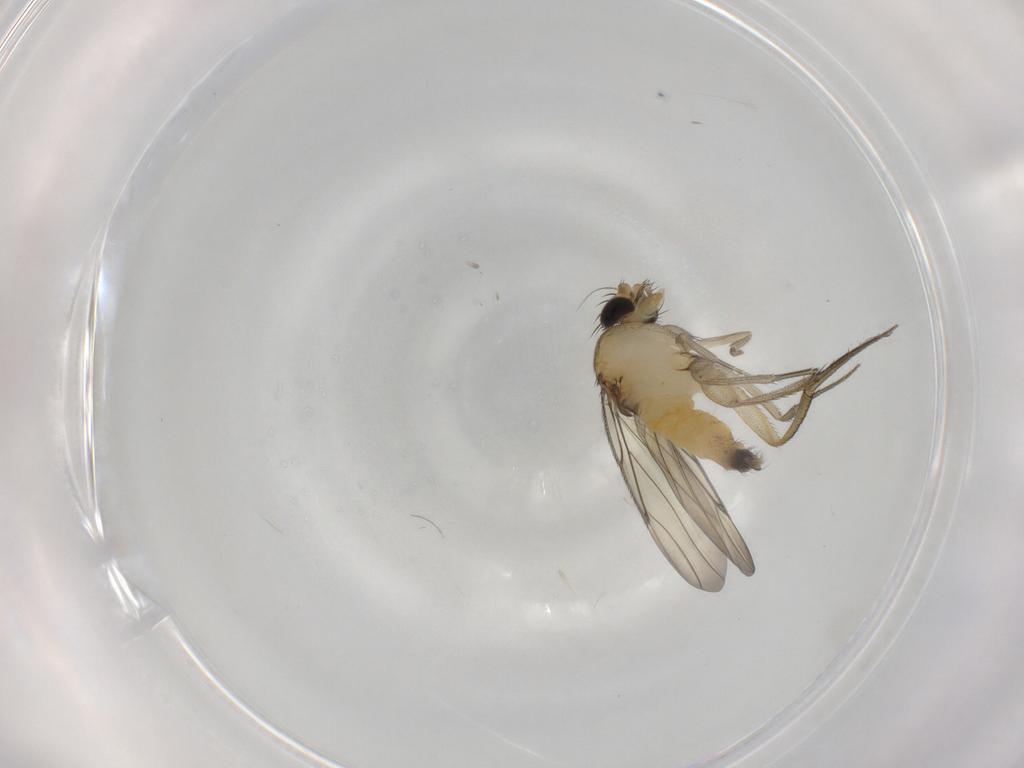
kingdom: Animalia
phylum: Arthropoda
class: Insecta
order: Diptera
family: Phoridae
